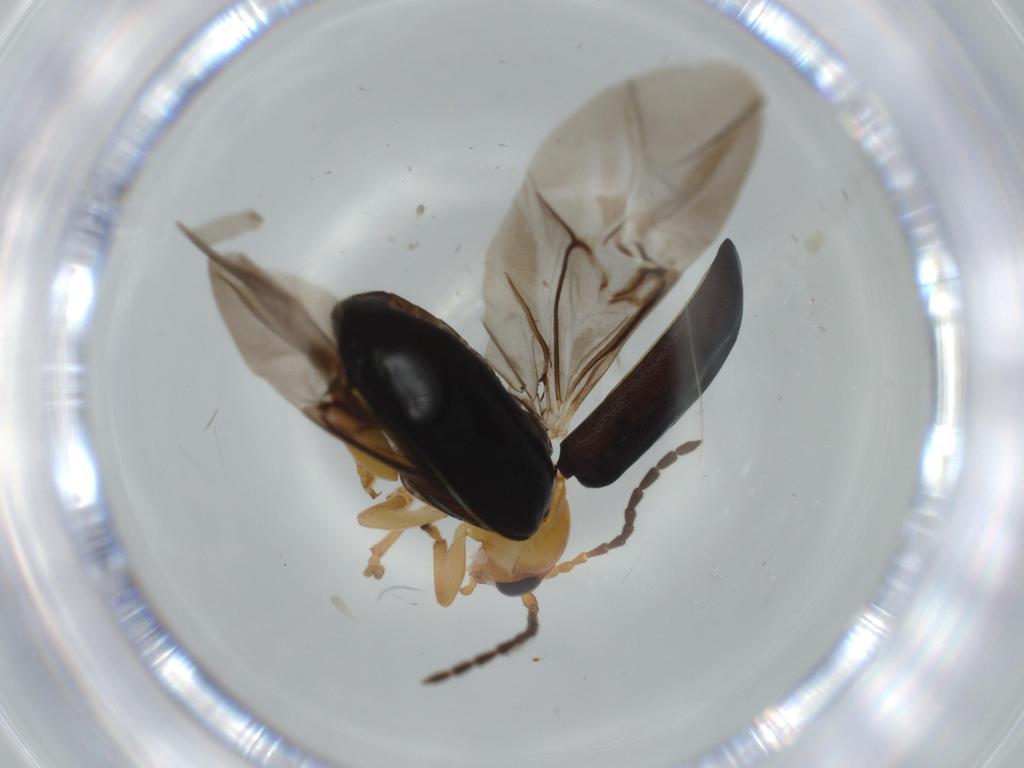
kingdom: Animalia
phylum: Arthropoda
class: Insecta
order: Coleoptera
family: Chrysomelidae
